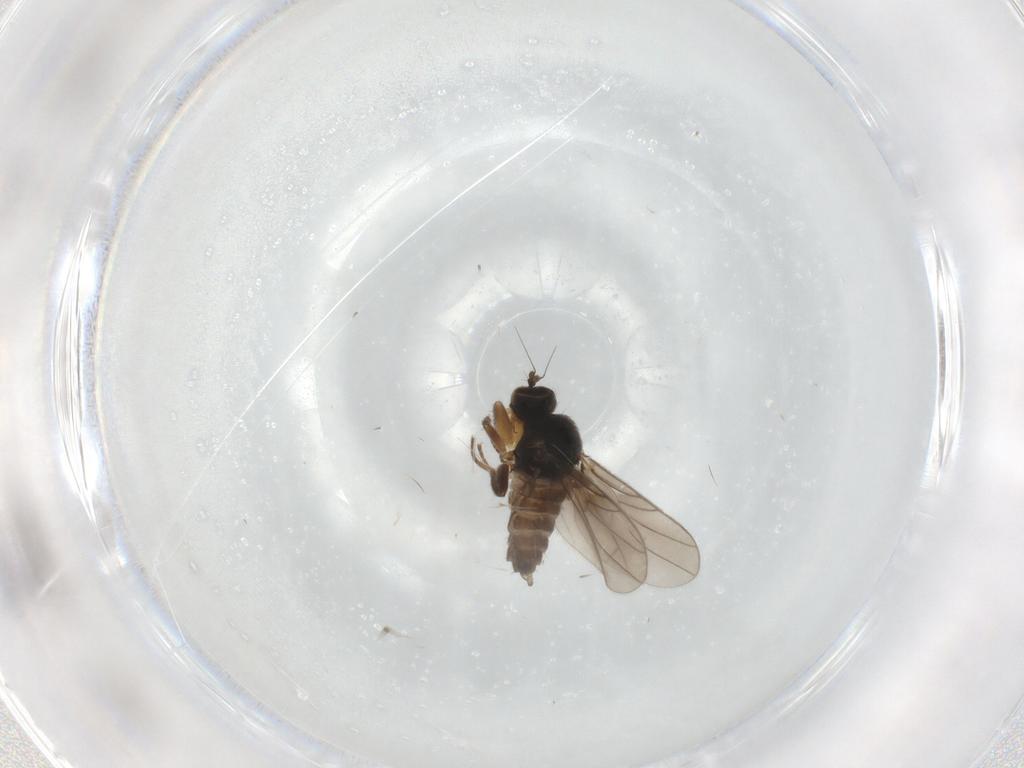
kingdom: Animalia
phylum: Arthropoda
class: Insecta
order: Diptera
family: Hybotidae
